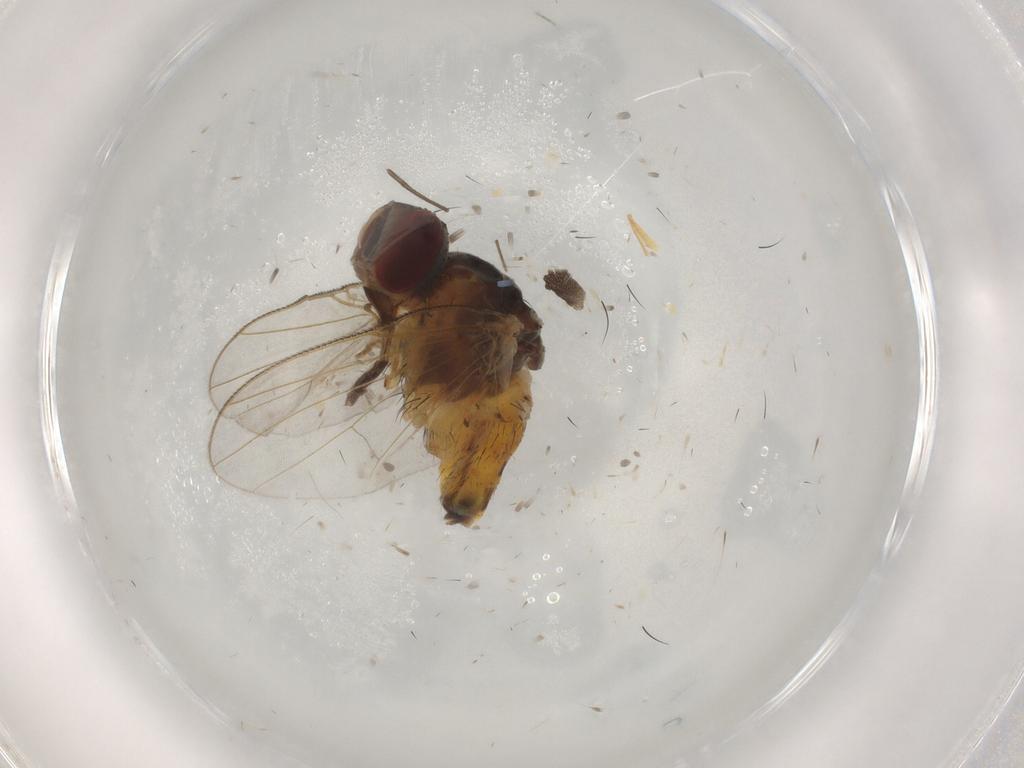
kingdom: Animalia
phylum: Arthropoda
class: Insecta
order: Diptera
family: Muscidae
